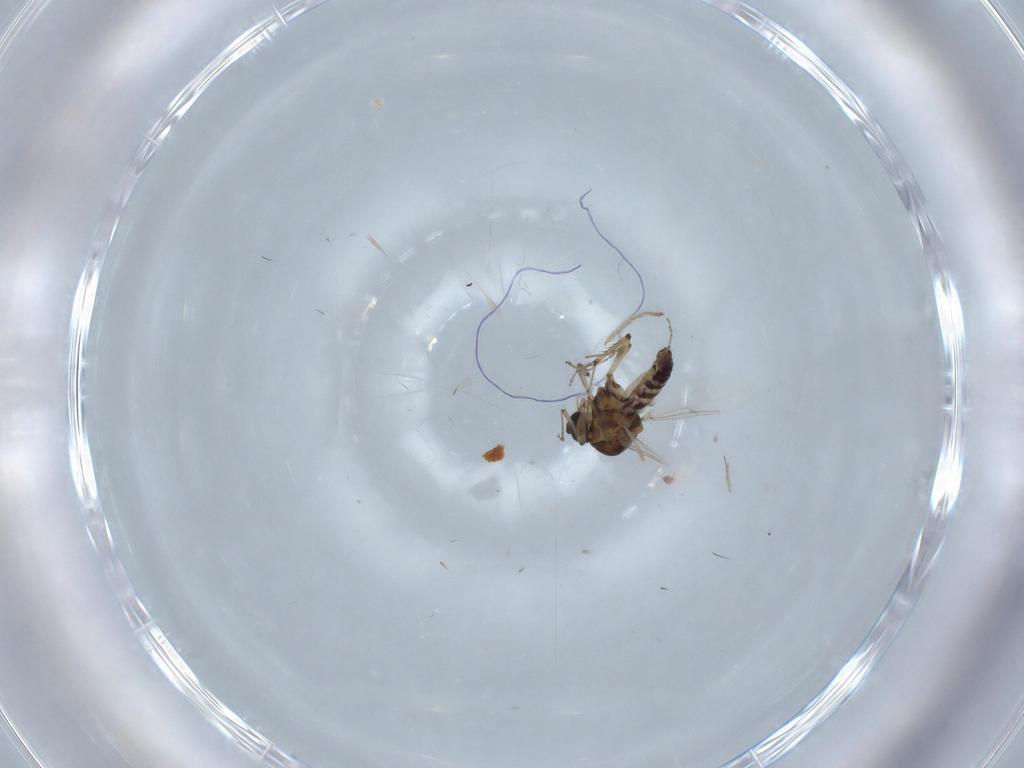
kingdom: Animalia
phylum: Arthropoda
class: Insecta
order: Diptera
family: Ceratopogonidae
